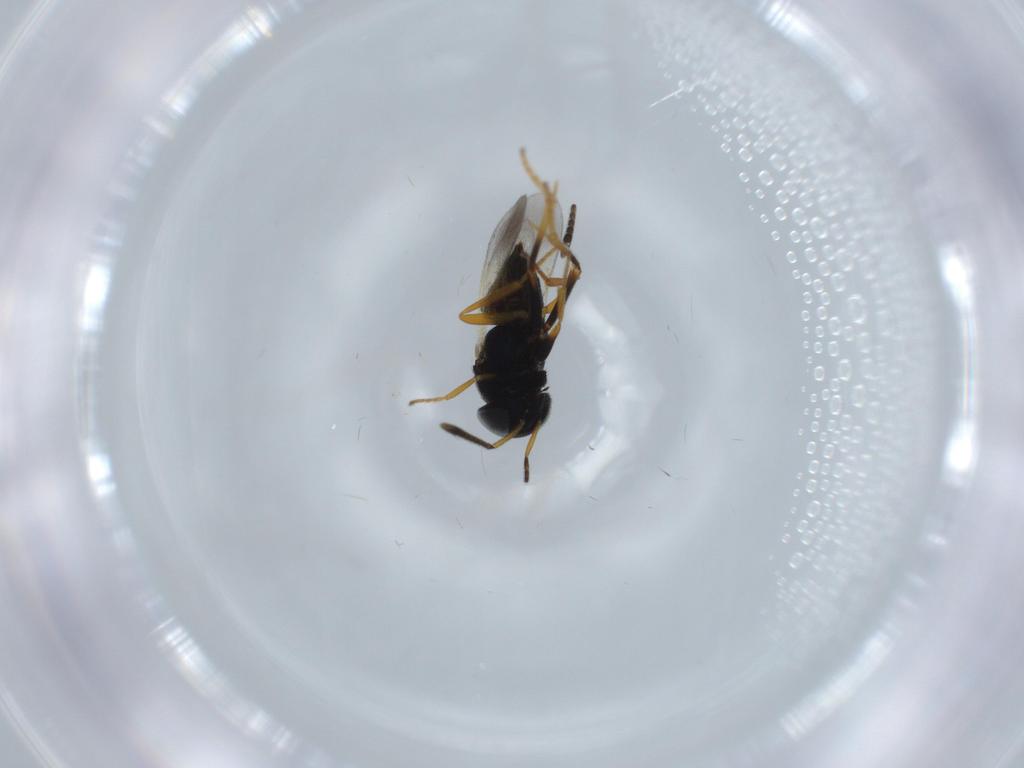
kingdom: Animalia
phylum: Arthropoda
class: Insecta
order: Hymenoptera
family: Encyrtidae
